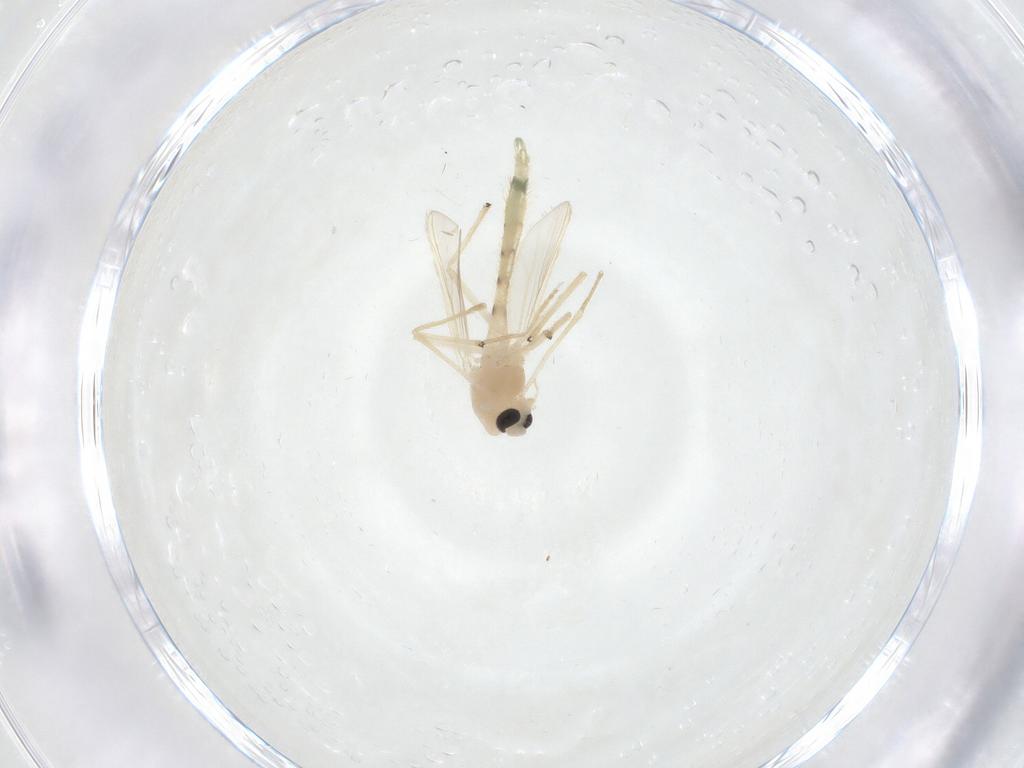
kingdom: Animalia
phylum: Arthropoda
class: Insecta
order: Diptera
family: Chironomidae
